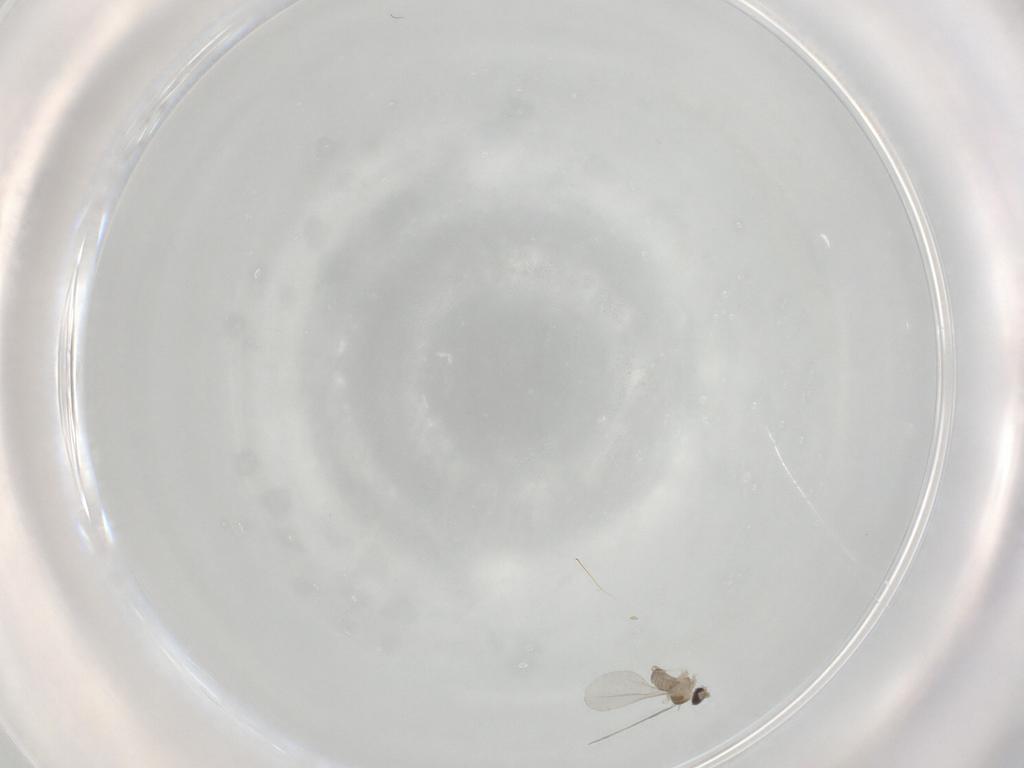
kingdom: Animalia
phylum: Arthropoda
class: Insecta
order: Diptera
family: Cecidomyiidae
